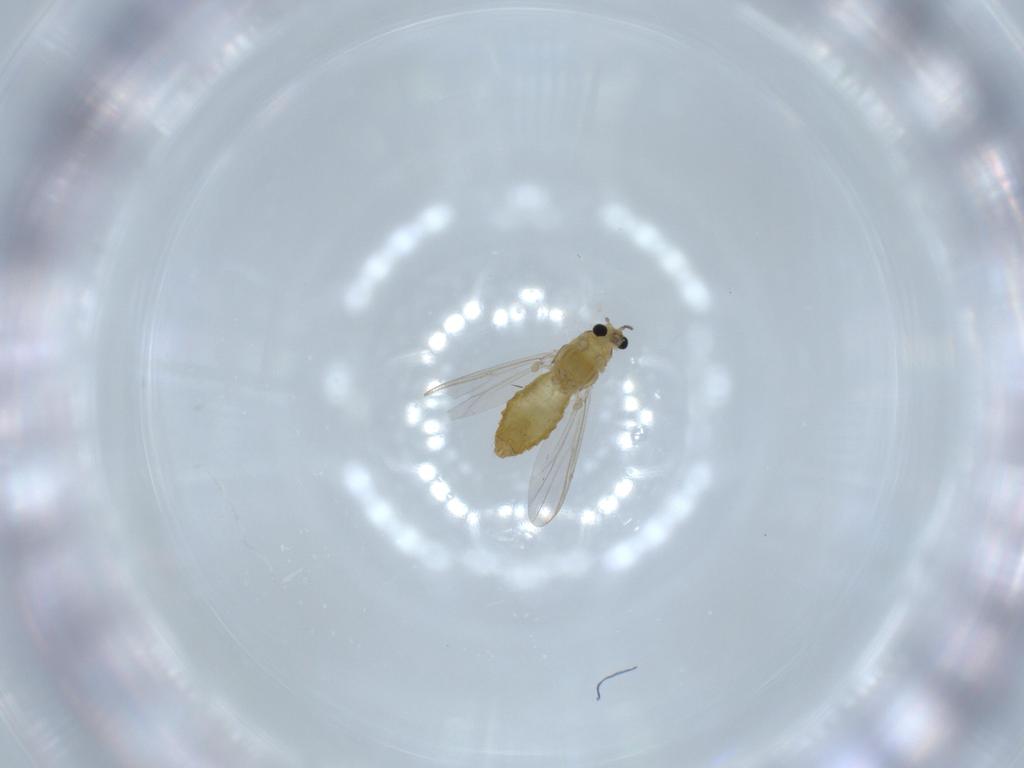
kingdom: Animalia
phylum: Arthropoda
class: Insecta
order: Diptera
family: Chironomidae
